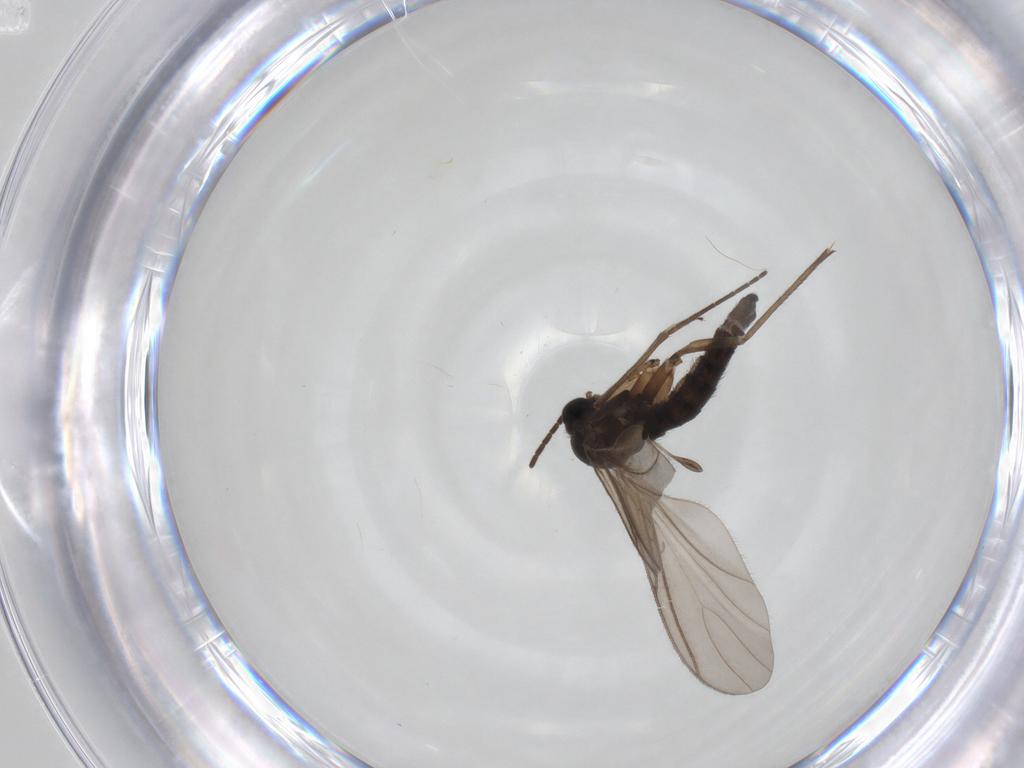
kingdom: Animalia
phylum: Arthropoda
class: Insecta
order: Diptera
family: Sciaridae
